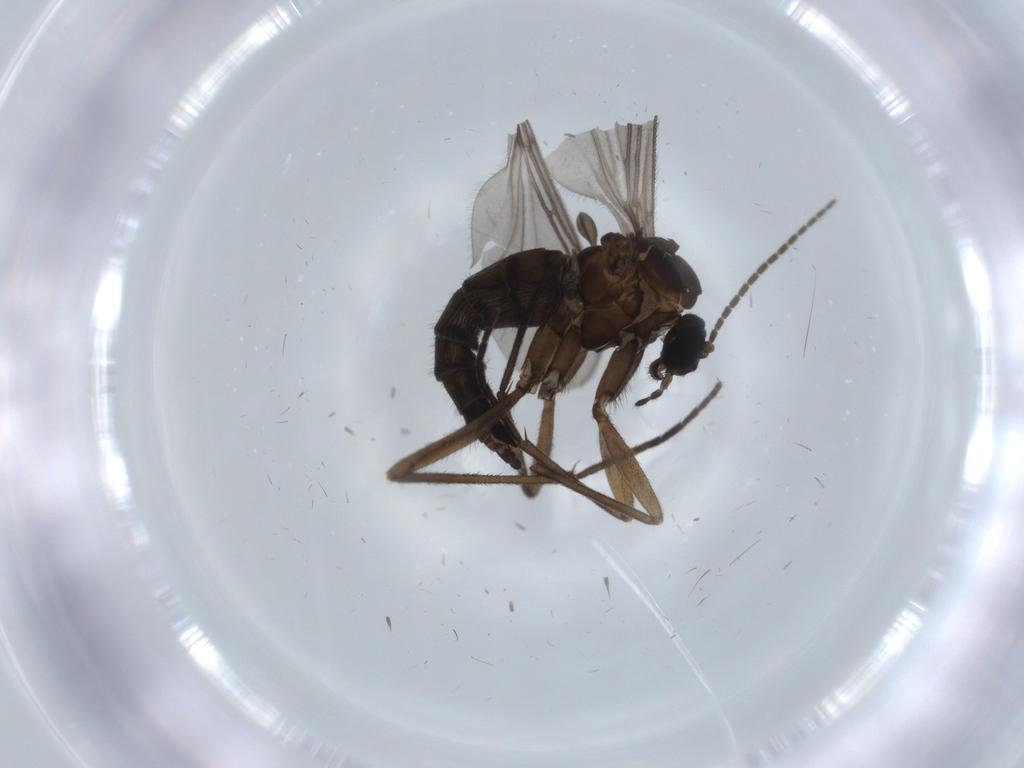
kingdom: Animalia
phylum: Arthropoda
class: Insecta
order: Diptera
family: Sciaridae
